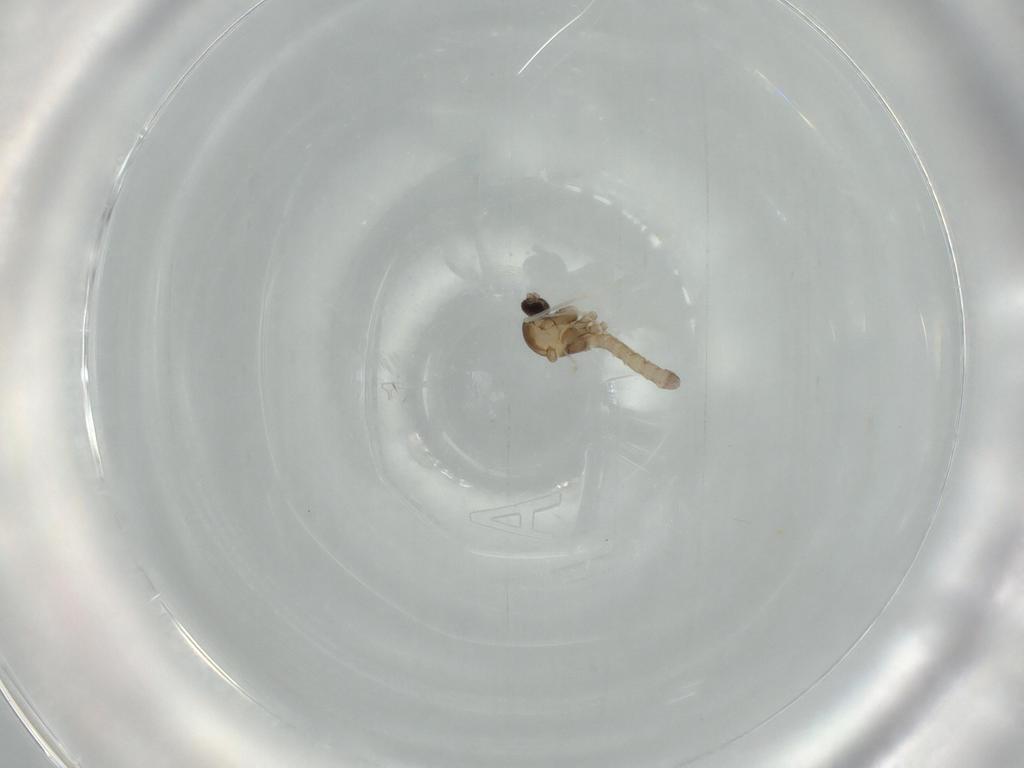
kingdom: Animalia
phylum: Arthropoda
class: Insecta
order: Diptera
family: Cecidomyiidae
